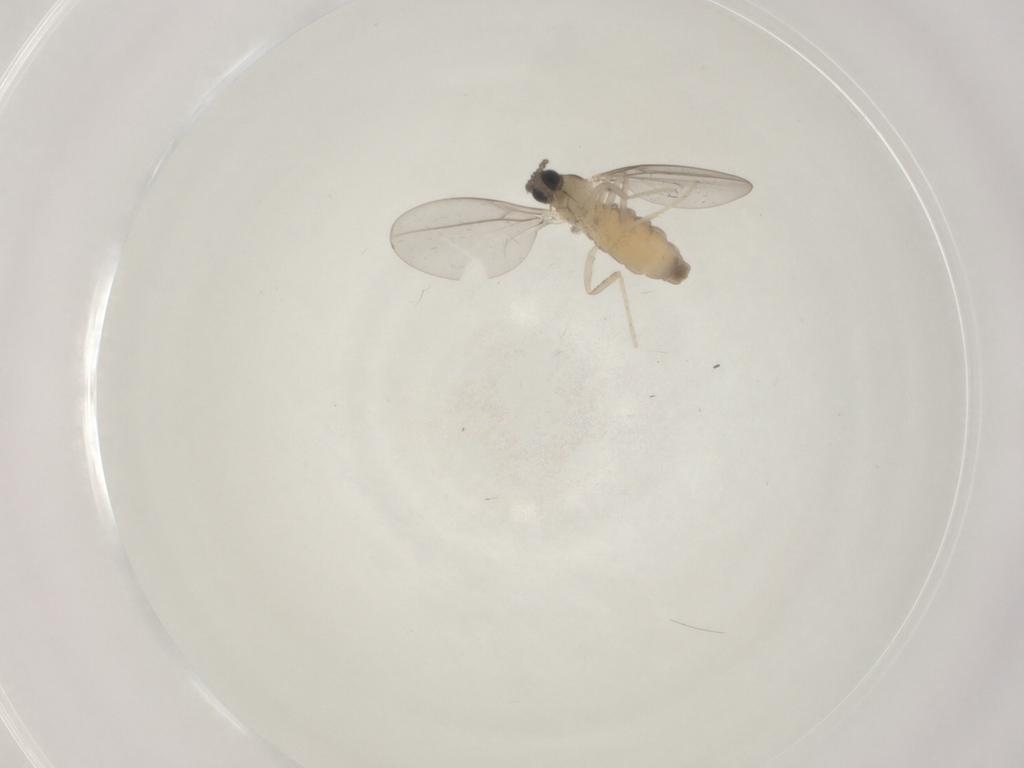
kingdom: Animalia
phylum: Arthropoda
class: Insecta
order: Diptera
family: Cecidomyiidae
